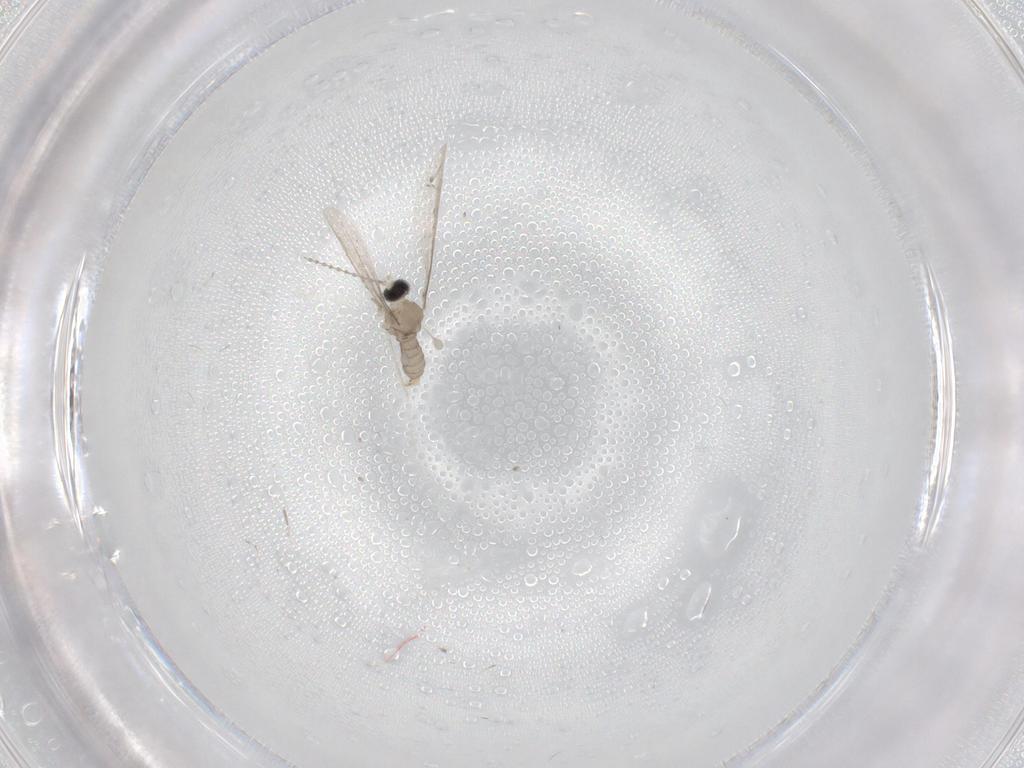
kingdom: Animalia
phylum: Arthropoda
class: Insecta
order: Diptera
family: Cecidomyiidae
